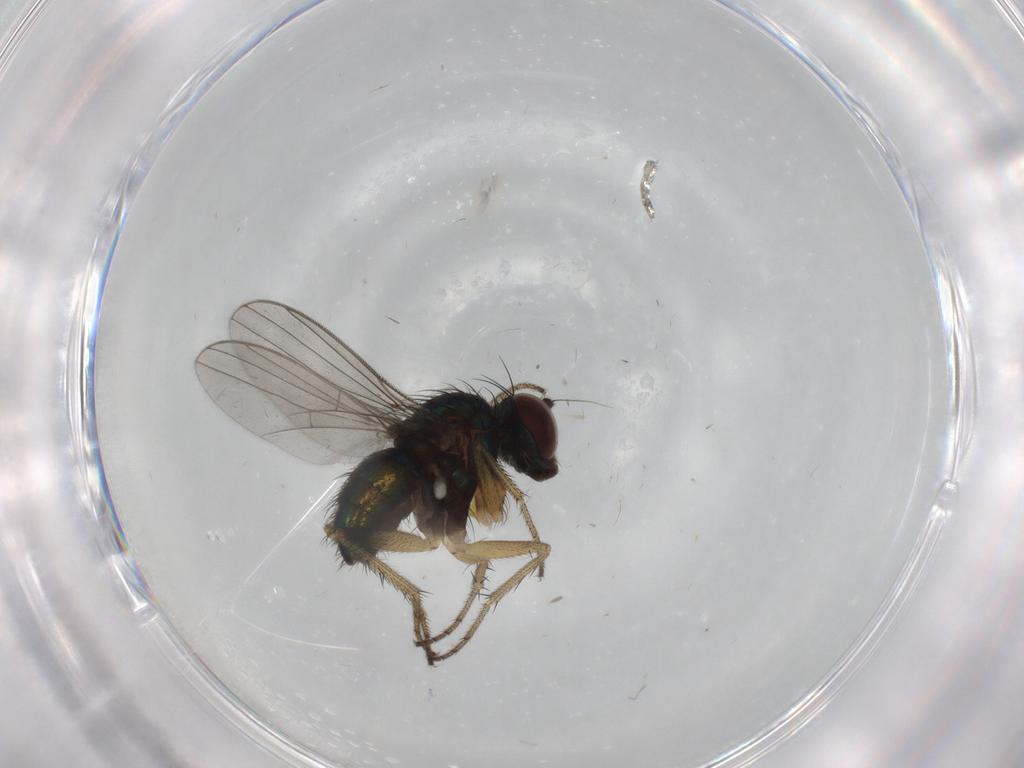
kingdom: Animalia
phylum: Arthropoda
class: Insecta
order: Diptera
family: Dolichopodidae
